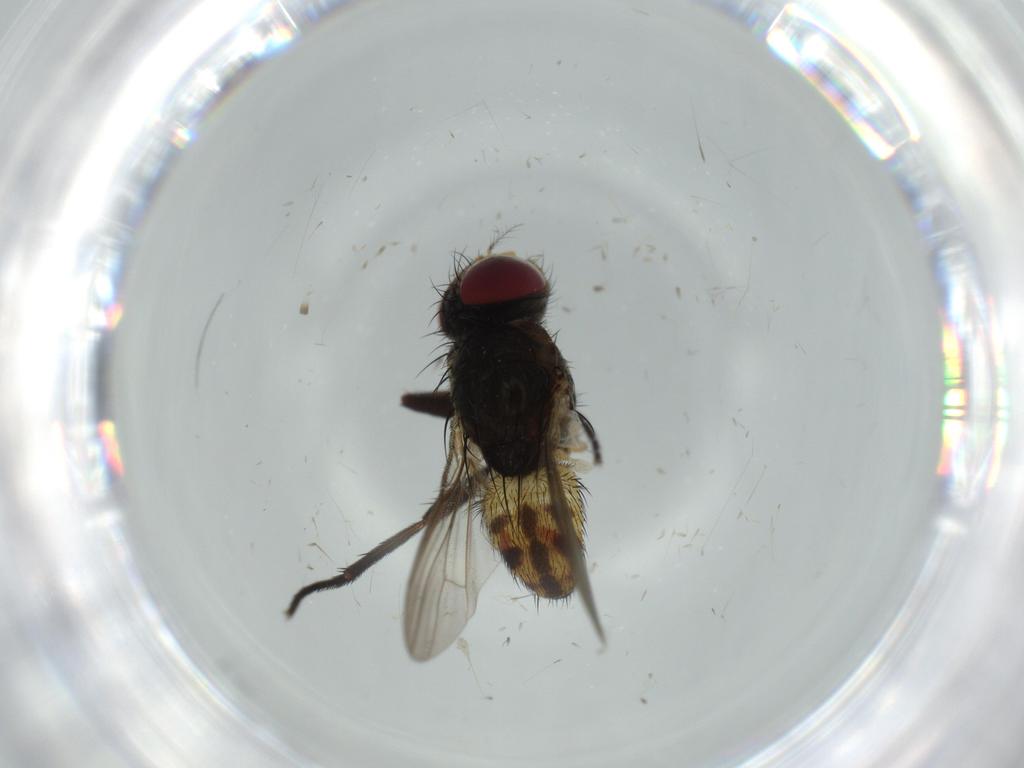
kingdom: Animalia
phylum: Arthropoda
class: Insecta
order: Diptera
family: Anthomyiidae
